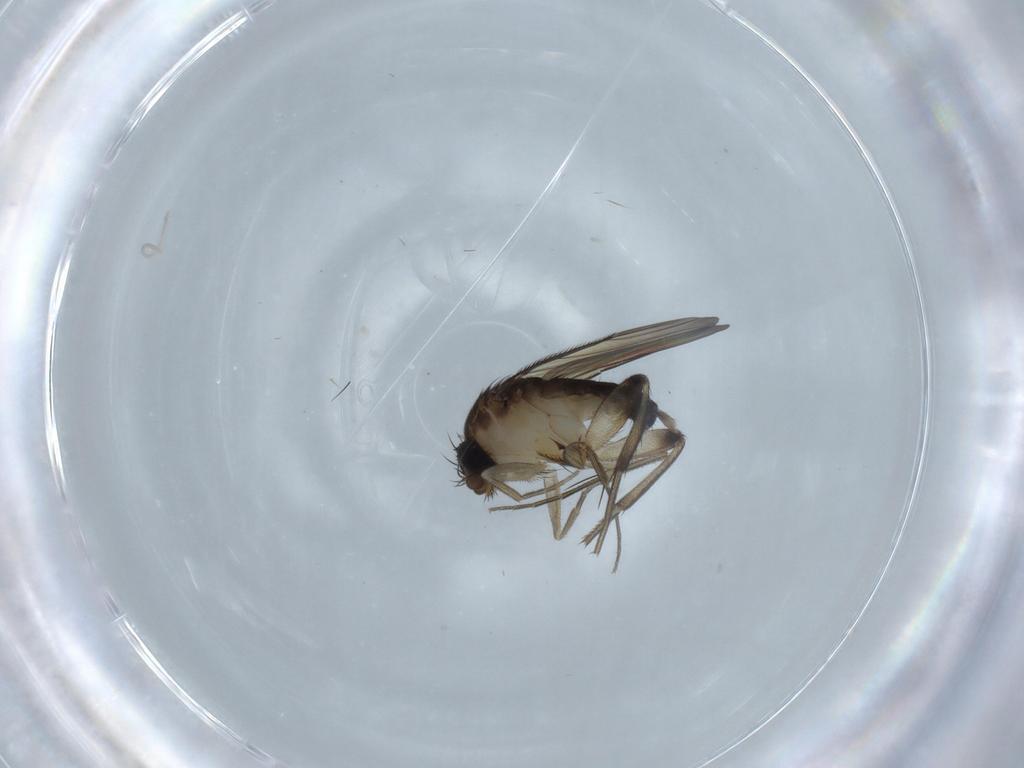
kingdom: Animalia
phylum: Arthropoda
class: Insecta
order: Diptera
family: Phoridae
